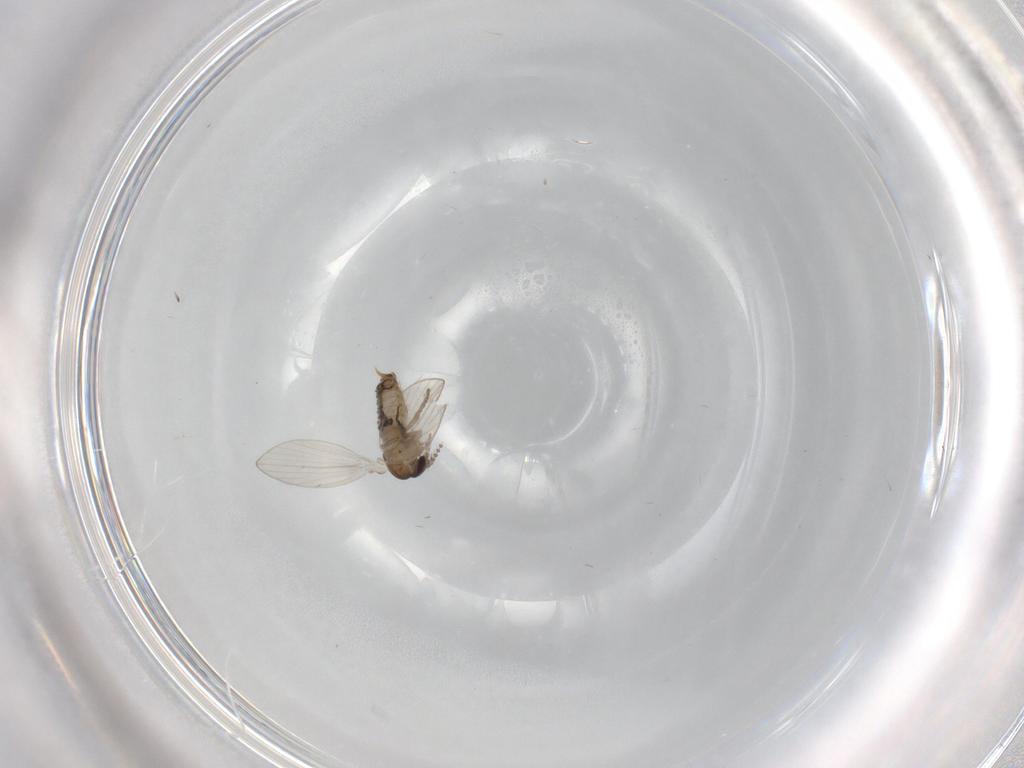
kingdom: Animalia
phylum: Arthropoda
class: Insecta
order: Diptera
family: Psychodidae
